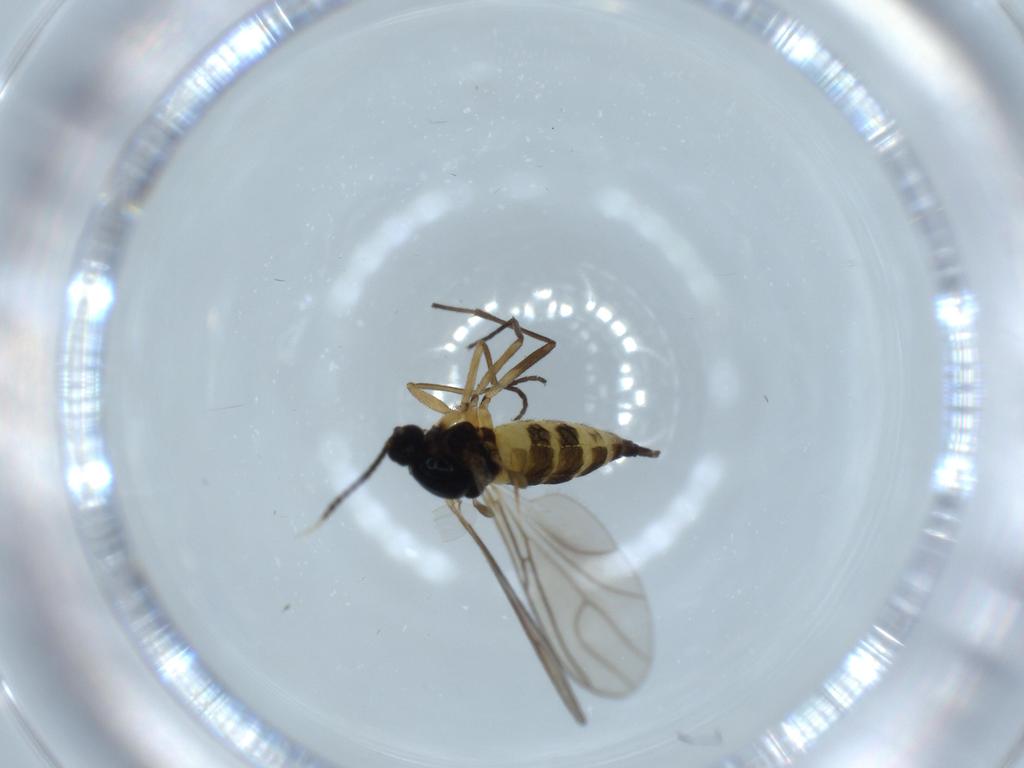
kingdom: Animalia
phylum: Arthropoda
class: Insecta
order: Diptera
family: Sciaridae
